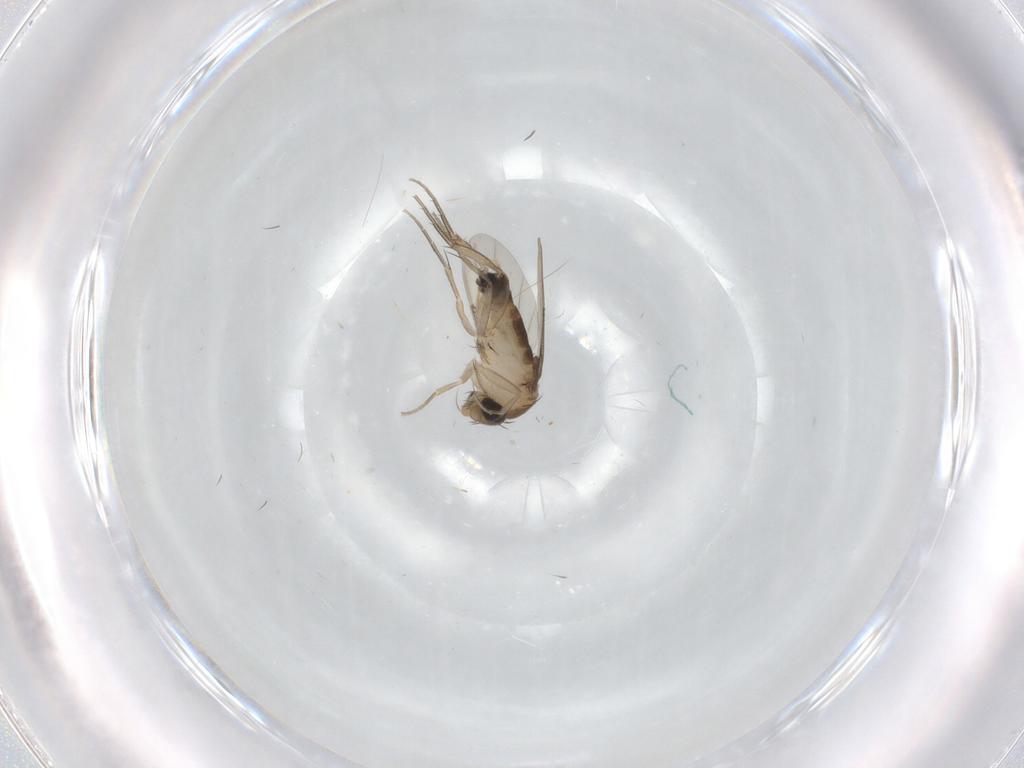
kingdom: Animalia
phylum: Arthropoda
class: Insecta
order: Diptera
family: Phoridae
